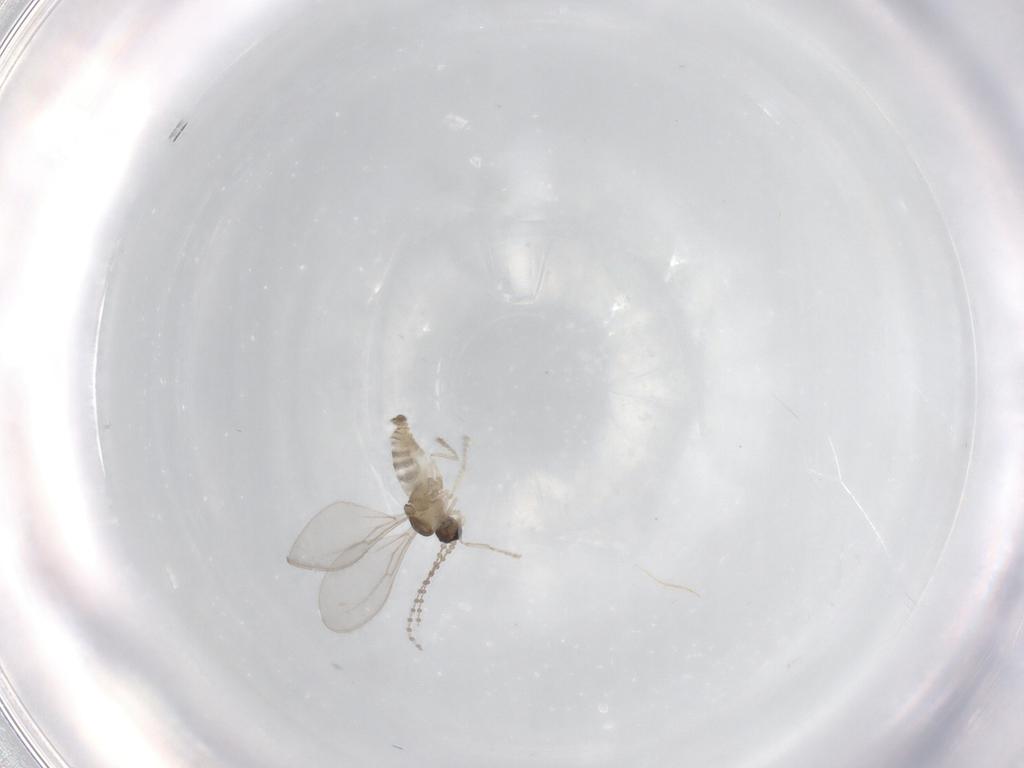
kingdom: Animalia
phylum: Arthropoda
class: Insecta
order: Diptera
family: Cecidomyiidae
